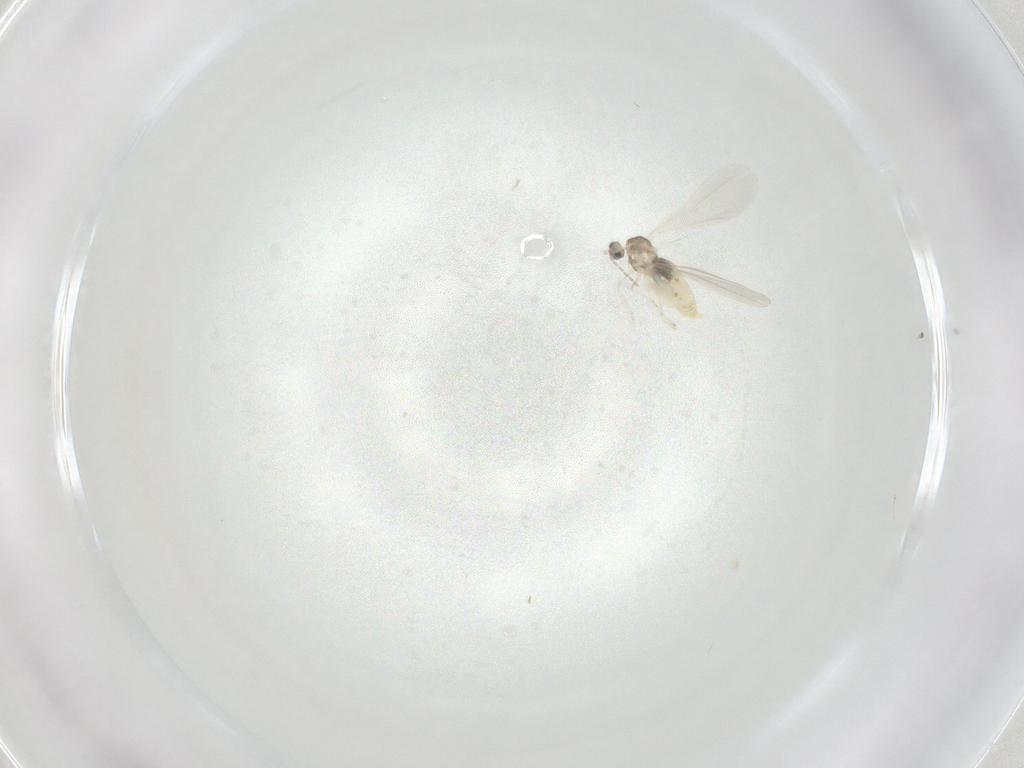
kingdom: Animalia
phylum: Arthropoda
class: Insecta
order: Diptera
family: Cecidomyiidae
